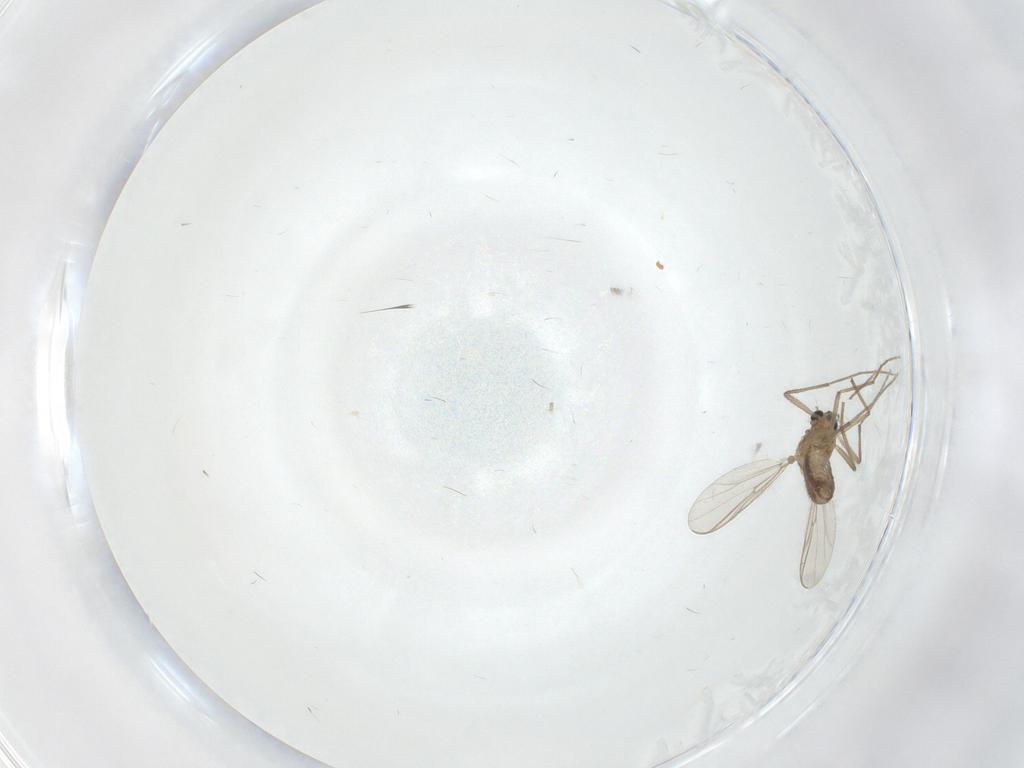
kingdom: Animalia
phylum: Arthropoda
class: Insecta
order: Diptera
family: Chironomidae
